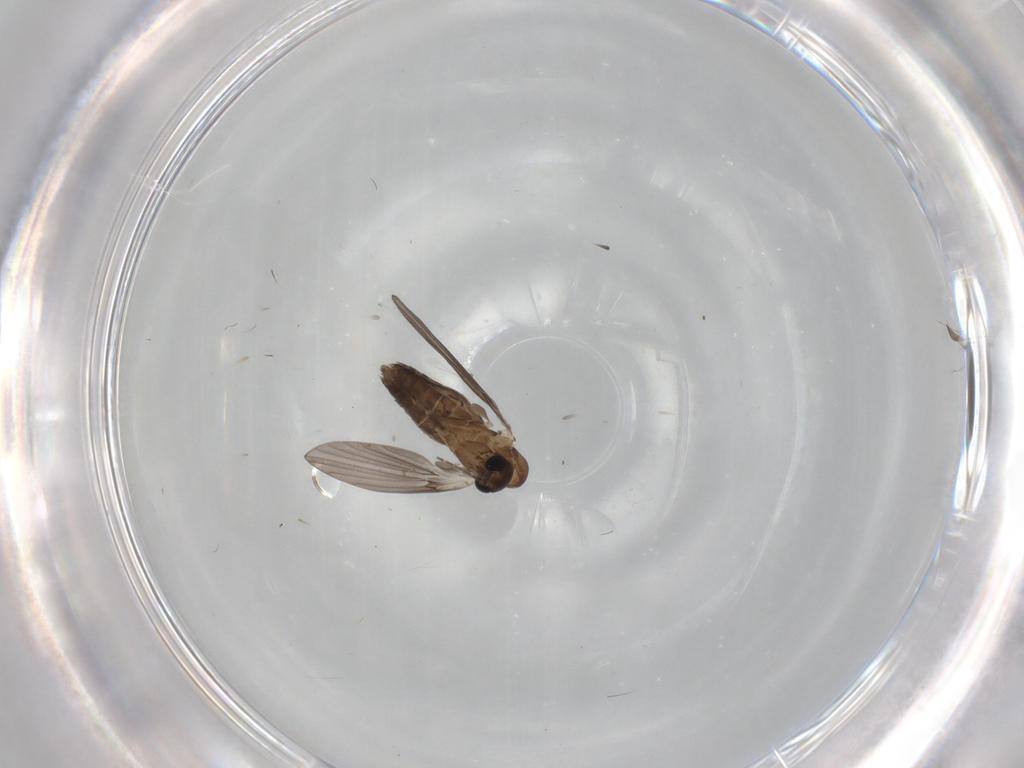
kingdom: Animalia
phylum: Arthropoda
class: Insecta
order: Diptera
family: Psychodidae
